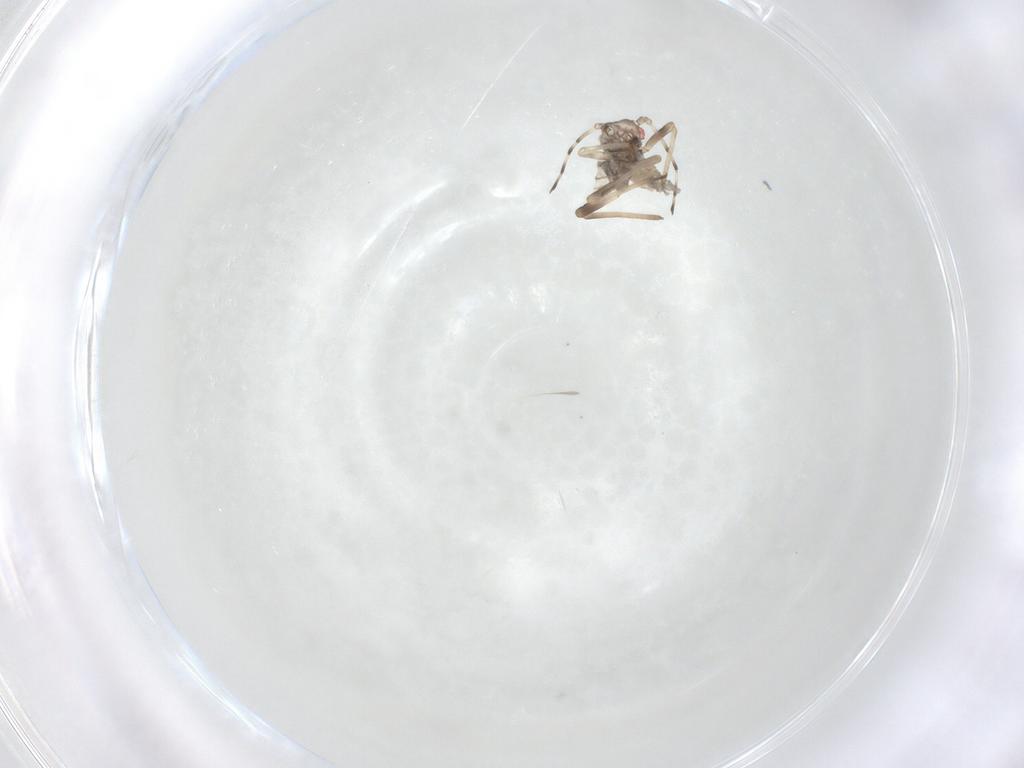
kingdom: Animalia
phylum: Arthropoda
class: Insecta
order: Hemiptera
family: Aphididae
